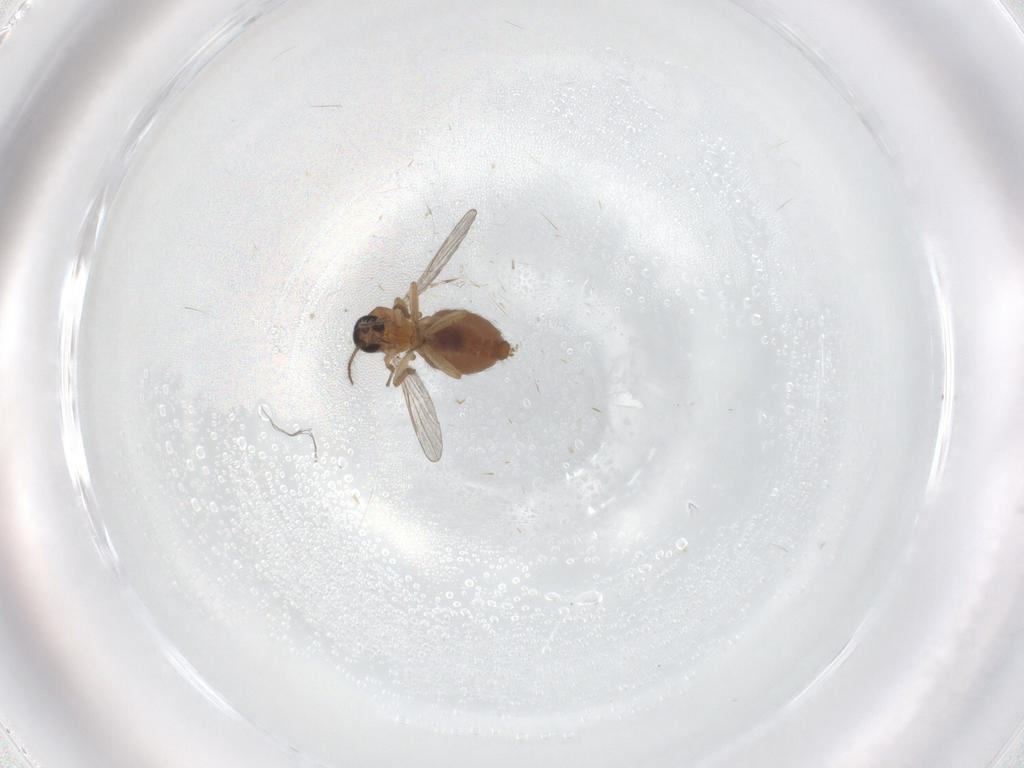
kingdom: Animalia
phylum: Arthropoda
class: Insecta
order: Diptera
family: Ceratopogonidae
